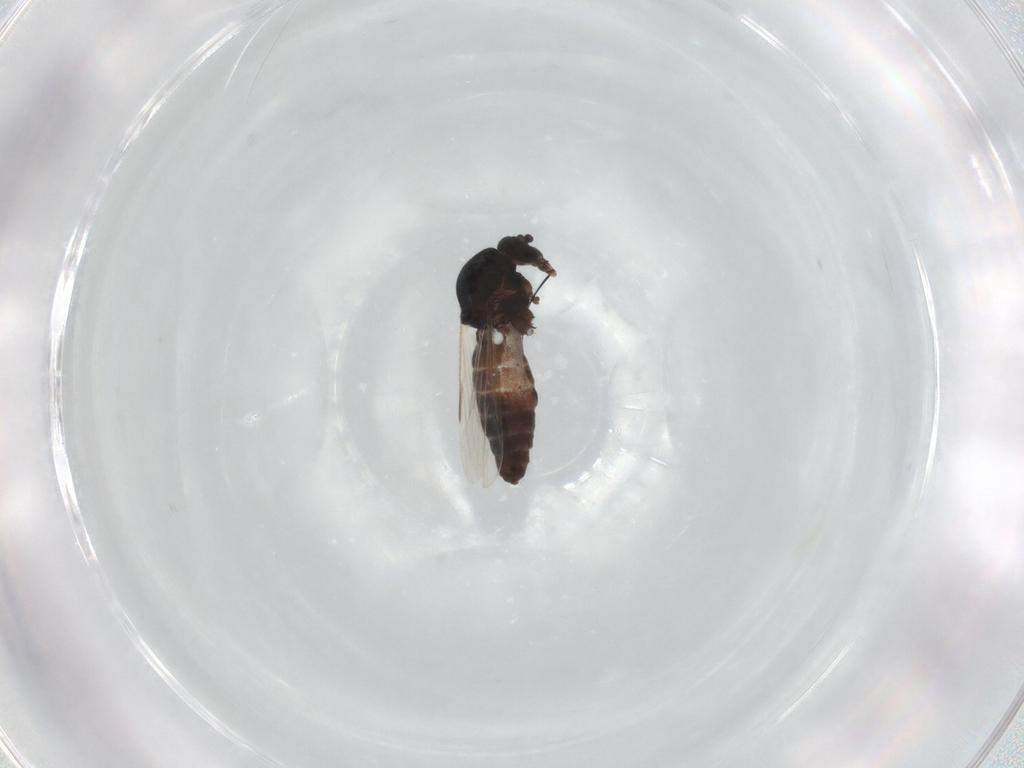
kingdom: Animalia
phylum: Arthropoda
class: Insecta
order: Diptera
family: Ceratopogonidae
